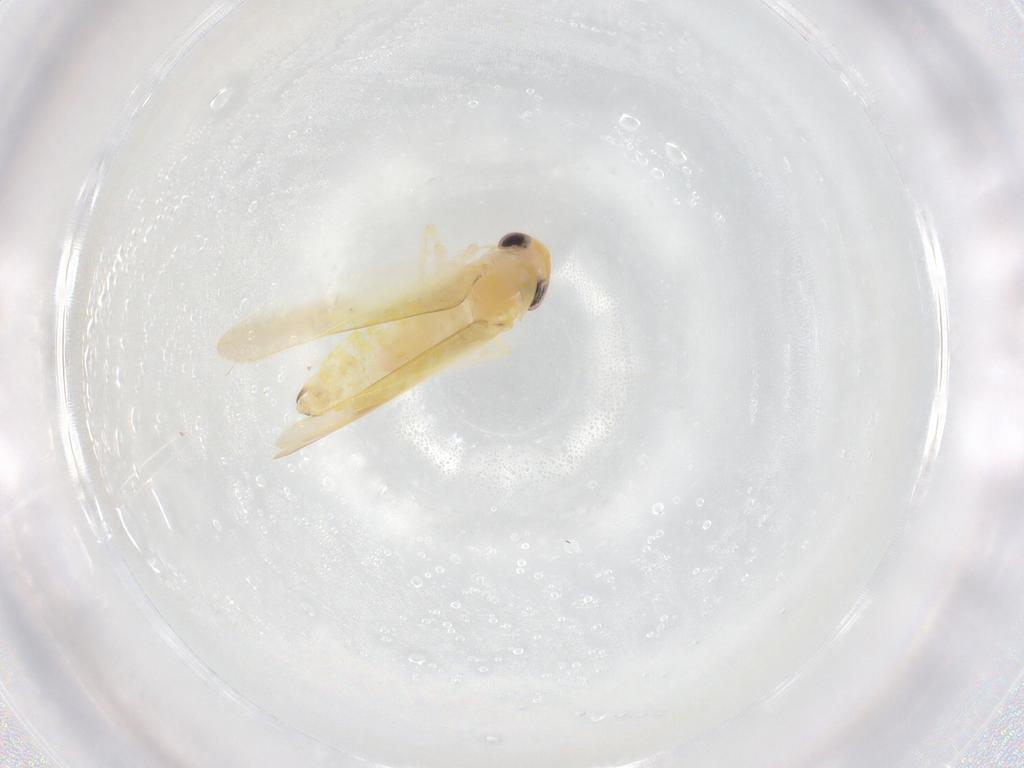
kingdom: Animalia
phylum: Arthropoda
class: Insecta
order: Hemiptera
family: Cicadellidae
